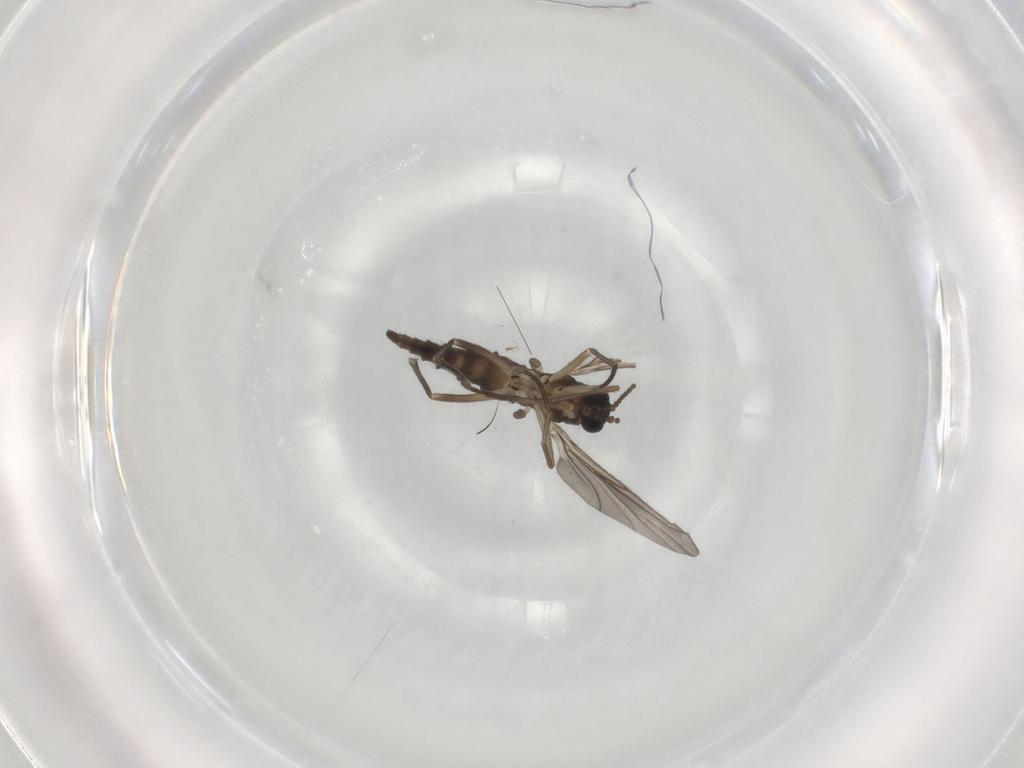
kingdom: Animalia
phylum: Arthropoda
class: Insecta
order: Diptera
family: Sciaridae
